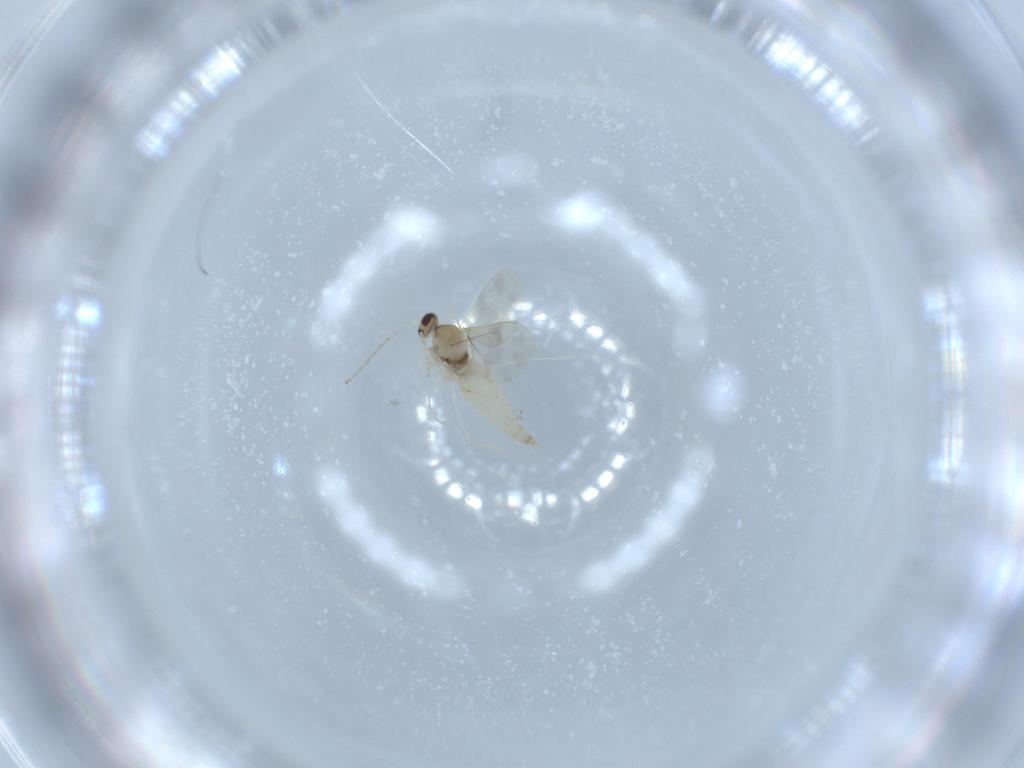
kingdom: Animalia
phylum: Arthropoda
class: Insecta
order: Diptera
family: Cecidomyiidae
